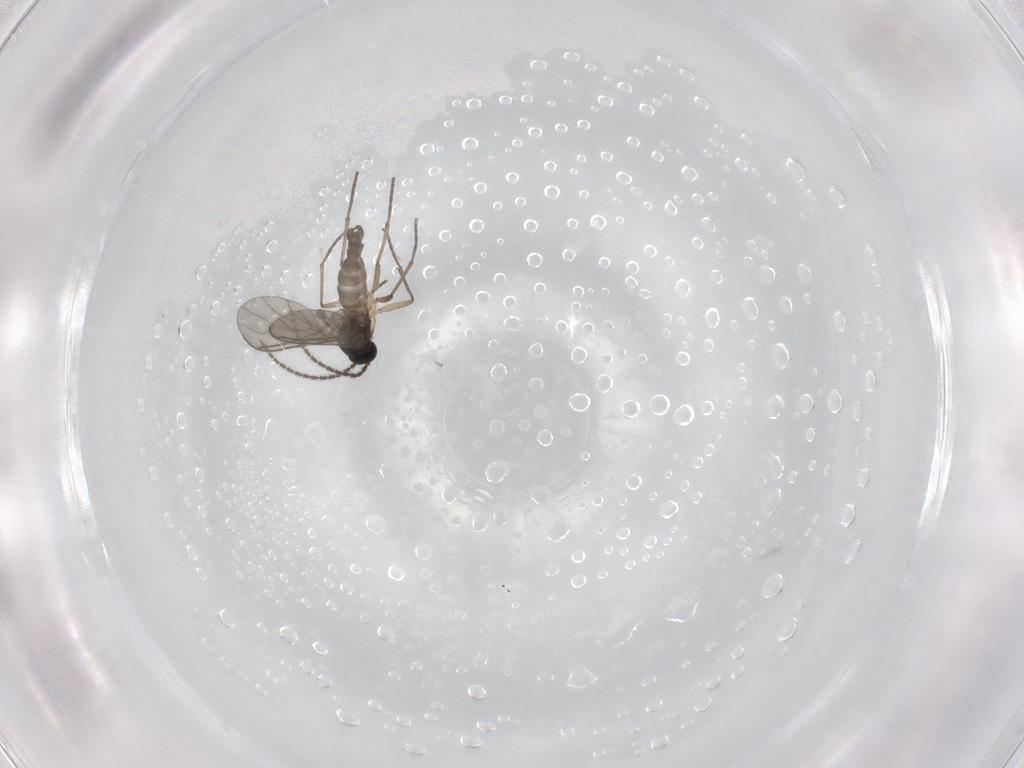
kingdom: Animalia
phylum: Arthropoda
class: Insecta
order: Diptera
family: Sciaridae
